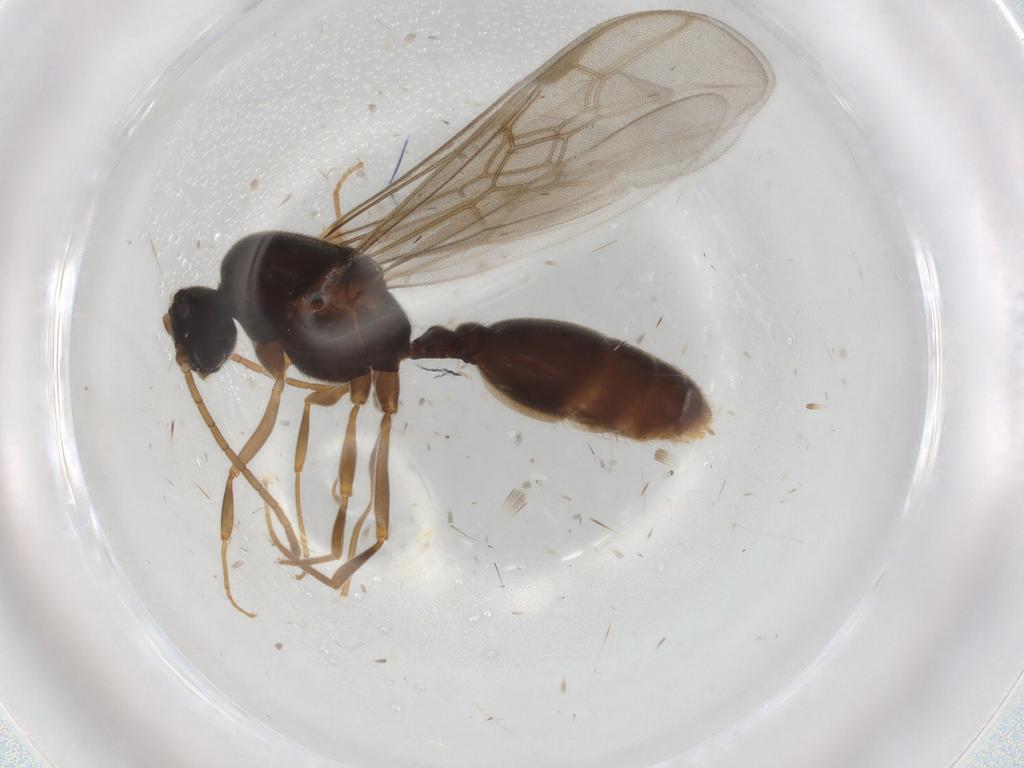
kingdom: Animalia
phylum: Arthropoda
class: Insecta
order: Hymenoptera
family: Formicidae
